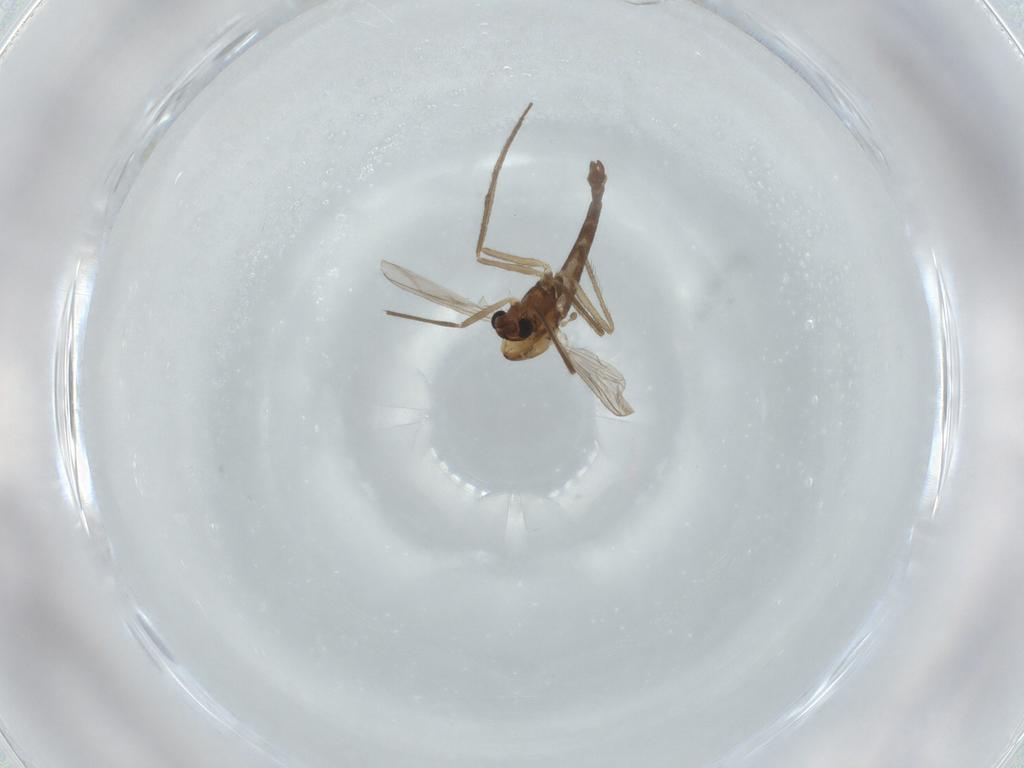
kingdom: Animalia
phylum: Arthropoda
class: Insecta
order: Diptera
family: Chironomidae
